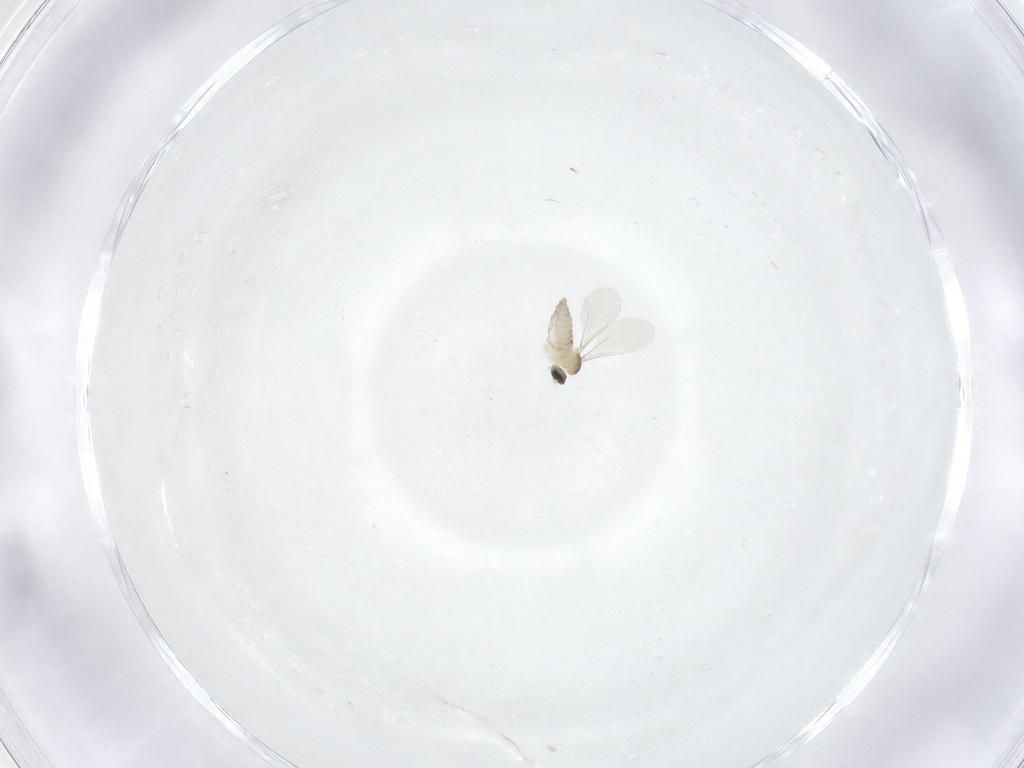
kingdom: Animalia
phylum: Arthropoda
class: Insecta
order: Diptera
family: Cecidomyiidae
